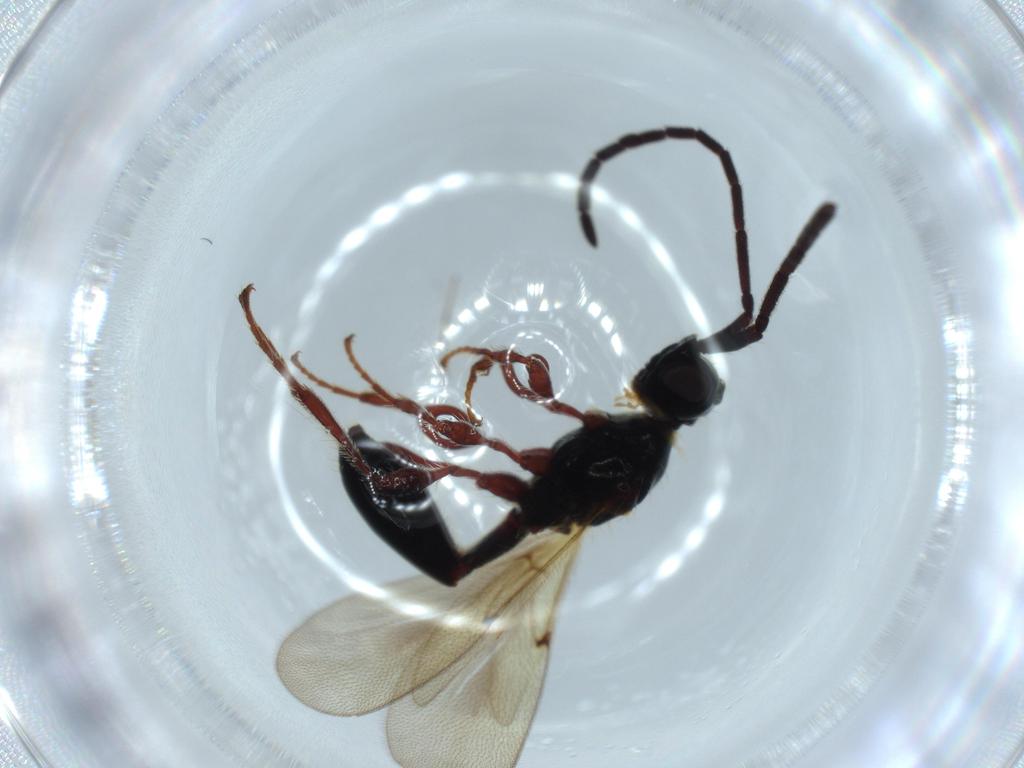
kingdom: Animalia
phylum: Arthropoda
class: Insecta
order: Hymenoptera
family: Diapriidae
